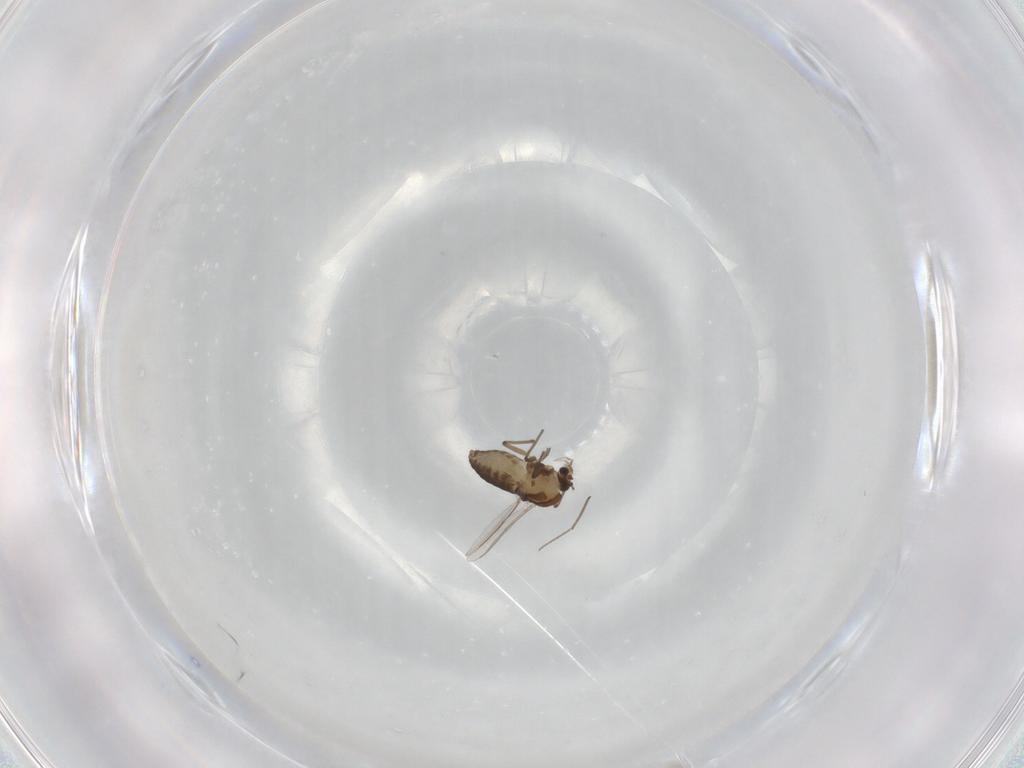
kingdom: Animalia
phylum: Arthropoda
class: Insecta
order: Diptera
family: Chironomidae
